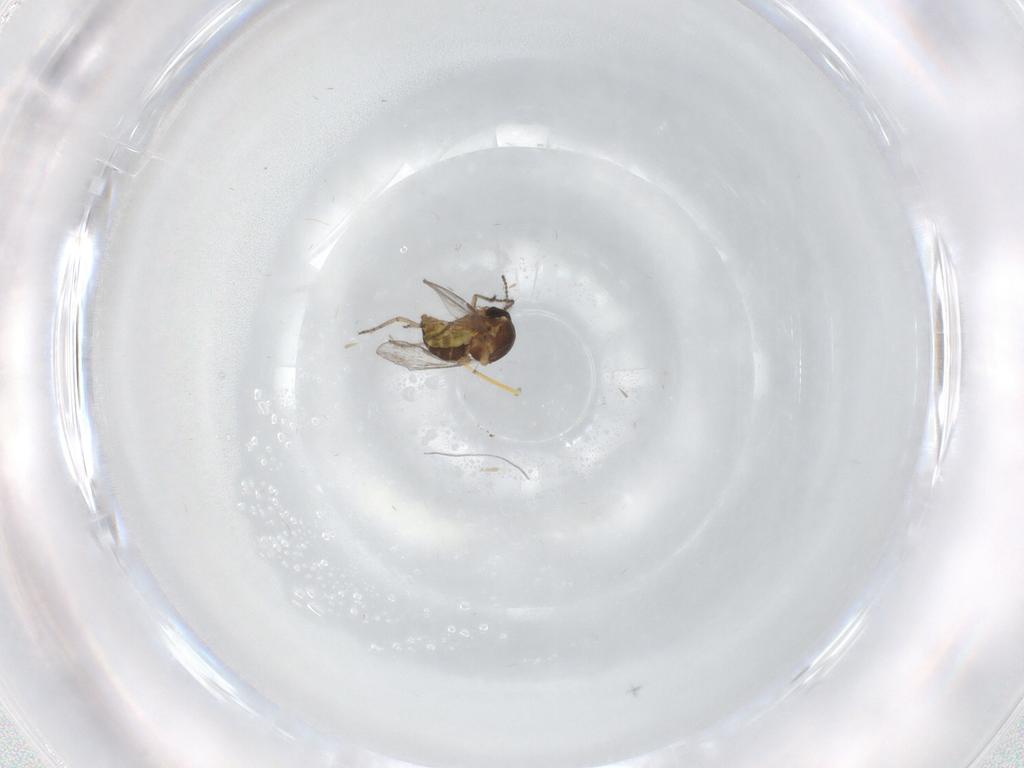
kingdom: Animalia
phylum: Arthropoda
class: Insecta
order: Diptera
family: Ceratopogonidae
